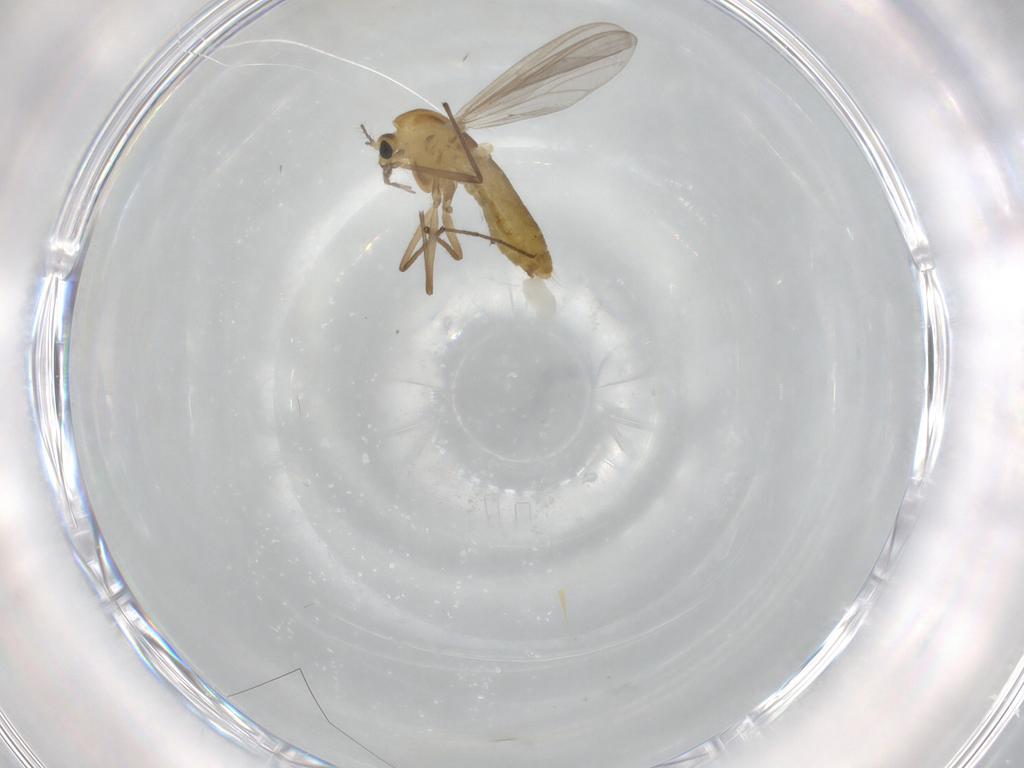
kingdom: Animalia
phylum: Arthropoda
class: Insecta
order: Diptera
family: Chironomidae
